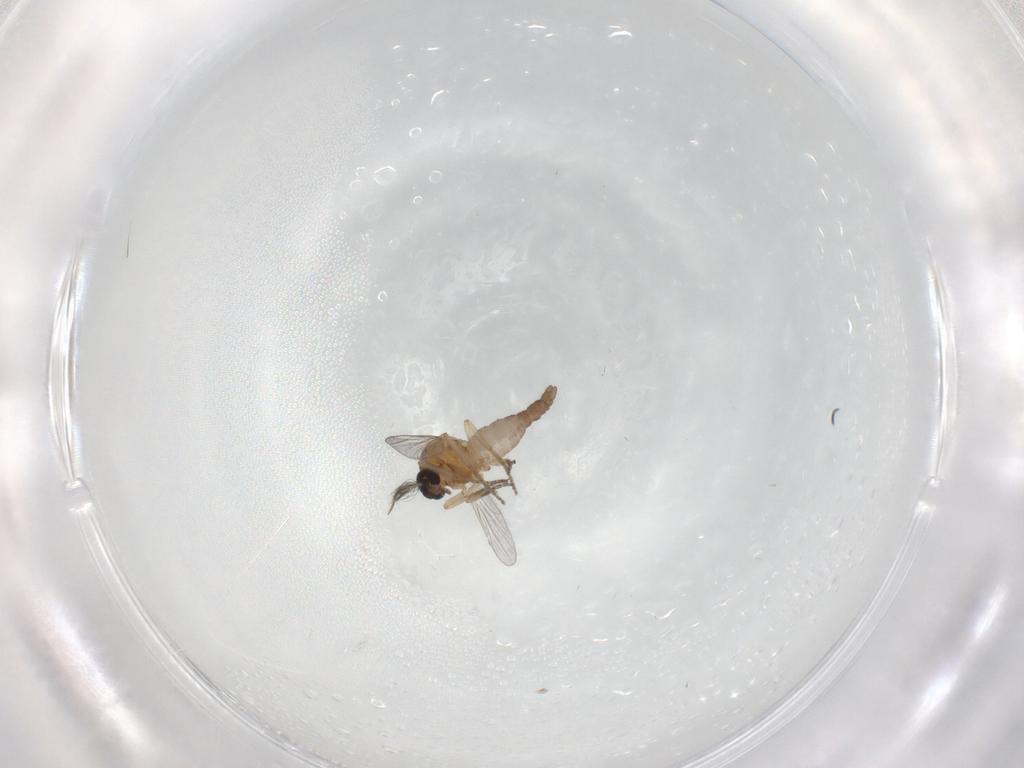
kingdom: Animalia
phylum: Arthropoda
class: Insecta
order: Diptera
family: Ceratopogonidae
